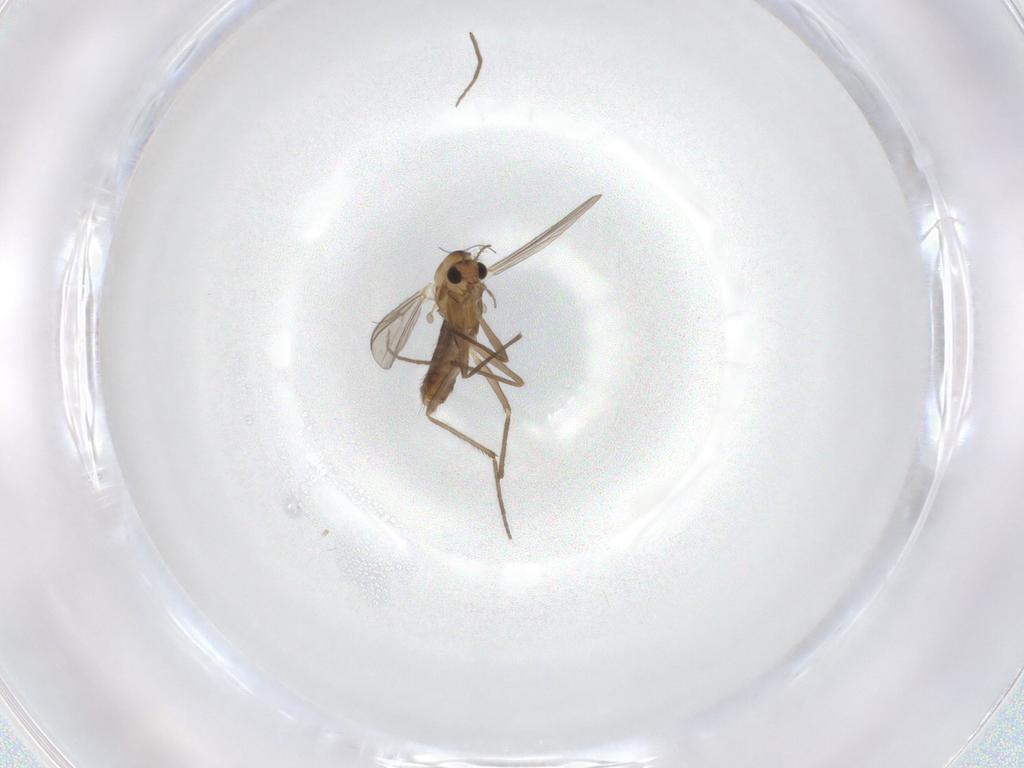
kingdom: Animalia
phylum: Arthropoda
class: Insecta
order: Diptera
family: Chironomidae
